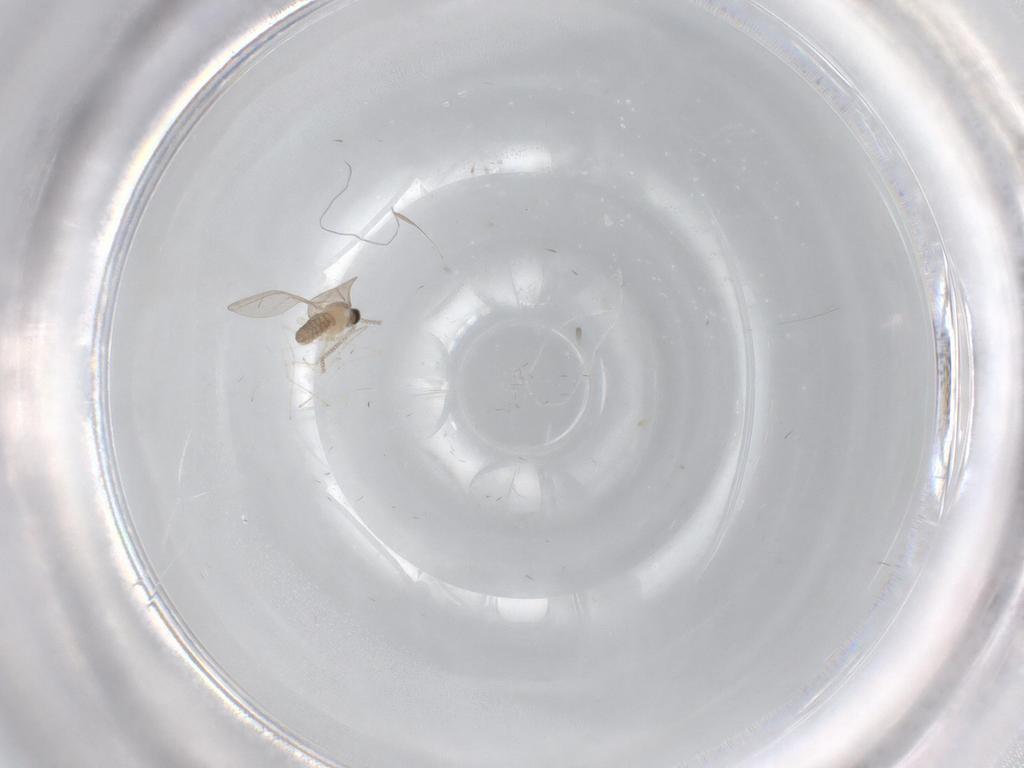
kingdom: Animalia
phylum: Arthropoda
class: Insecta
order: Diptera
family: Cecidomyiidae
